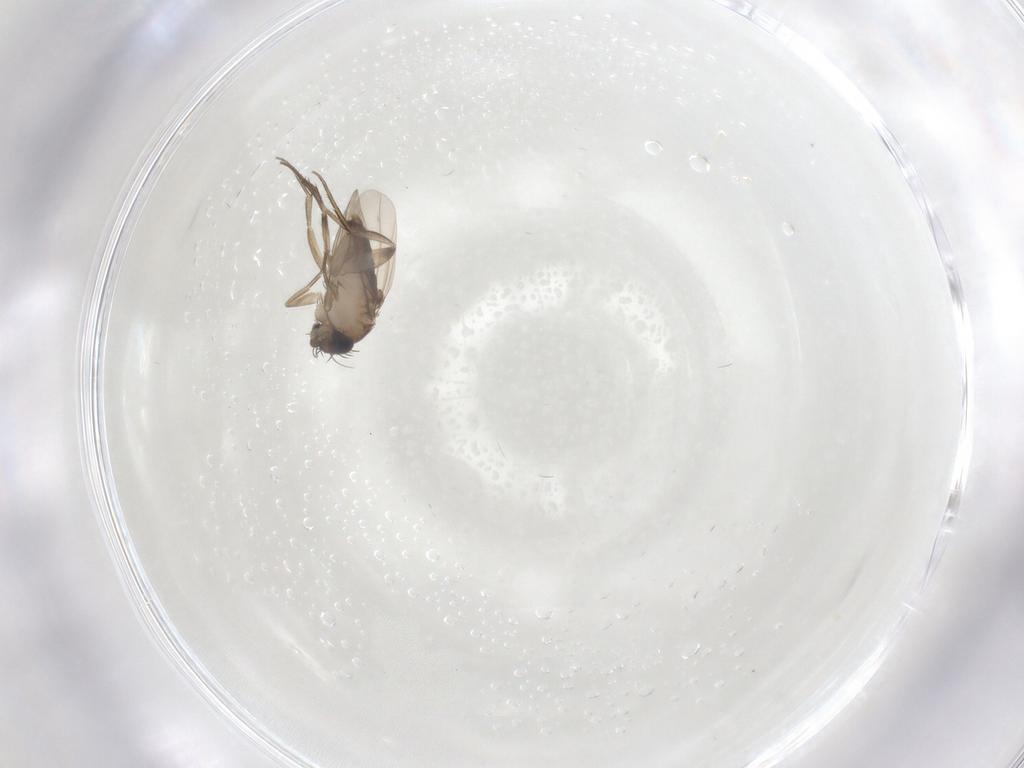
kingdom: Animalia
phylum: Arthropoda
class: Insecta
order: Diptera
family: Phoridae
